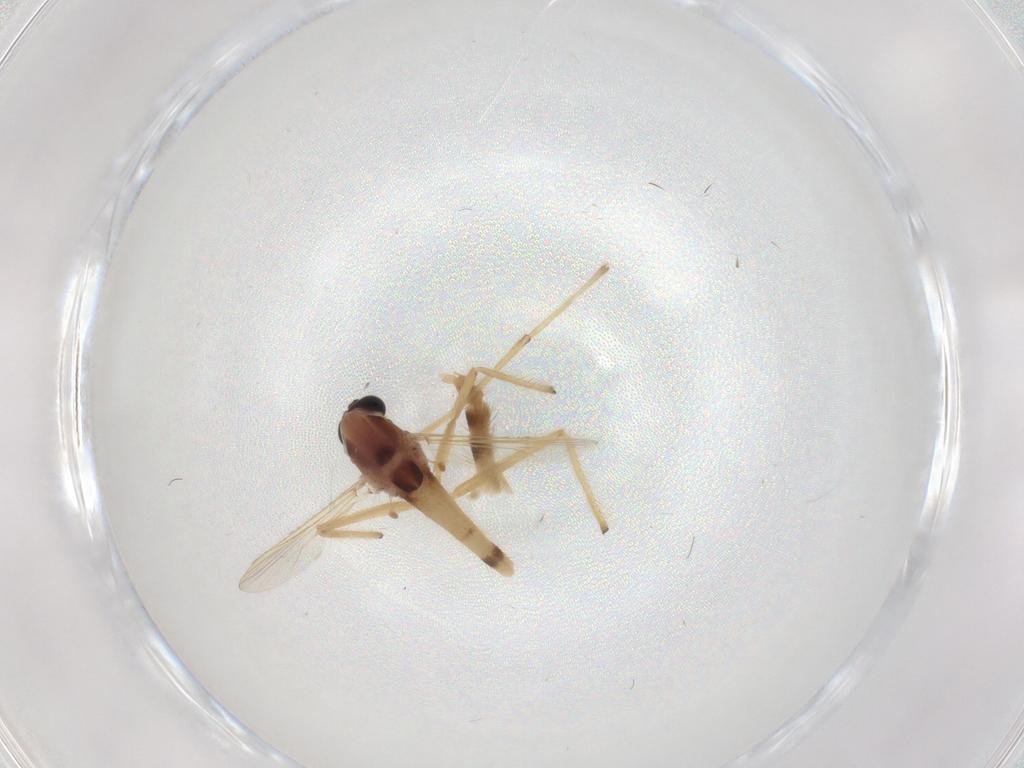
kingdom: Animalia
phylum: Arthropoda
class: Insecta
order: Diptera
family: Chironomidae
